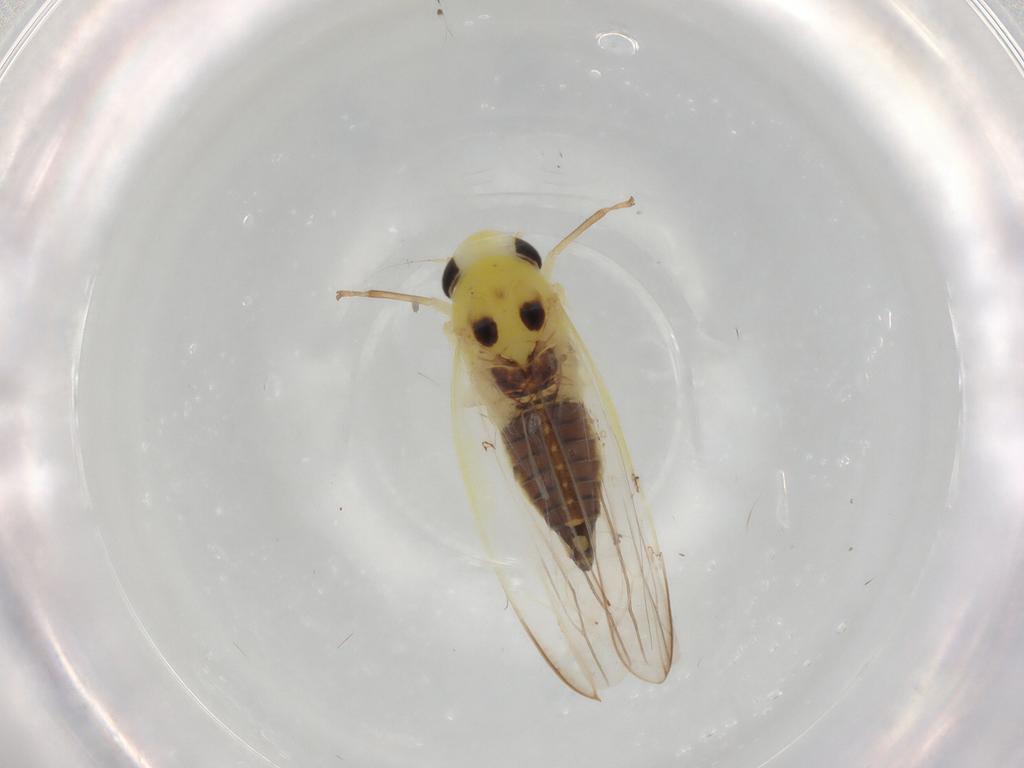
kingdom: Animalia
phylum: Arthropoda
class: Insecta
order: Hemiptera
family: Cicadellidae
